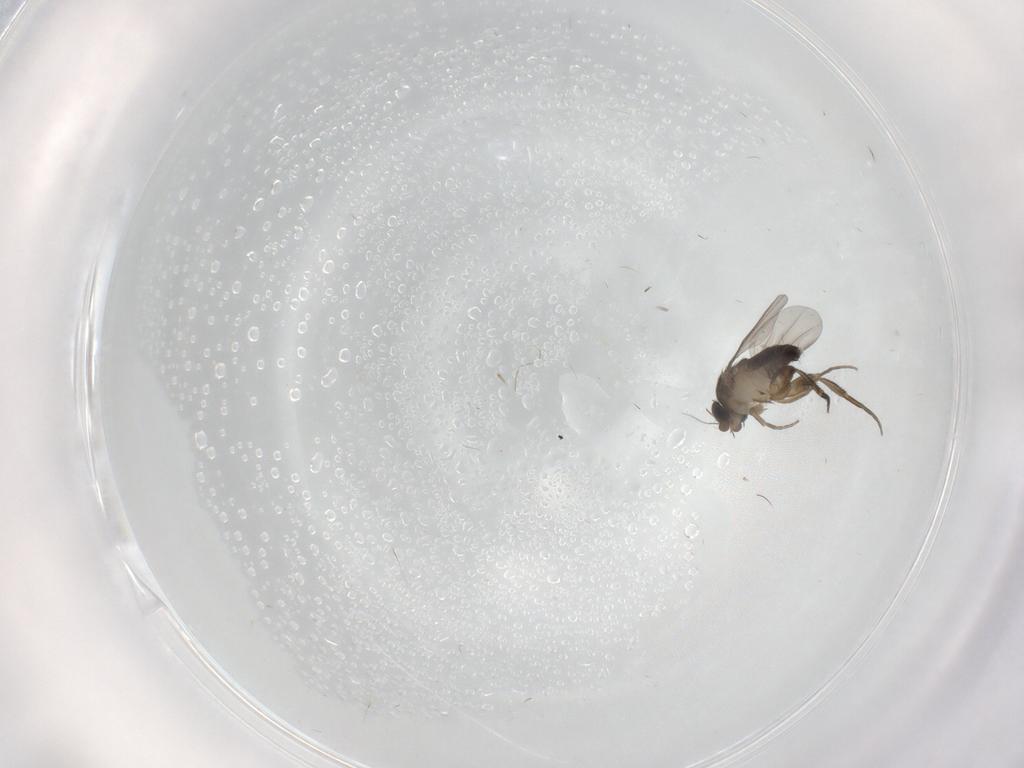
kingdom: Animalia
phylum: Arthropoda
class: Insecta
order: Diptera
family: Phoridae
